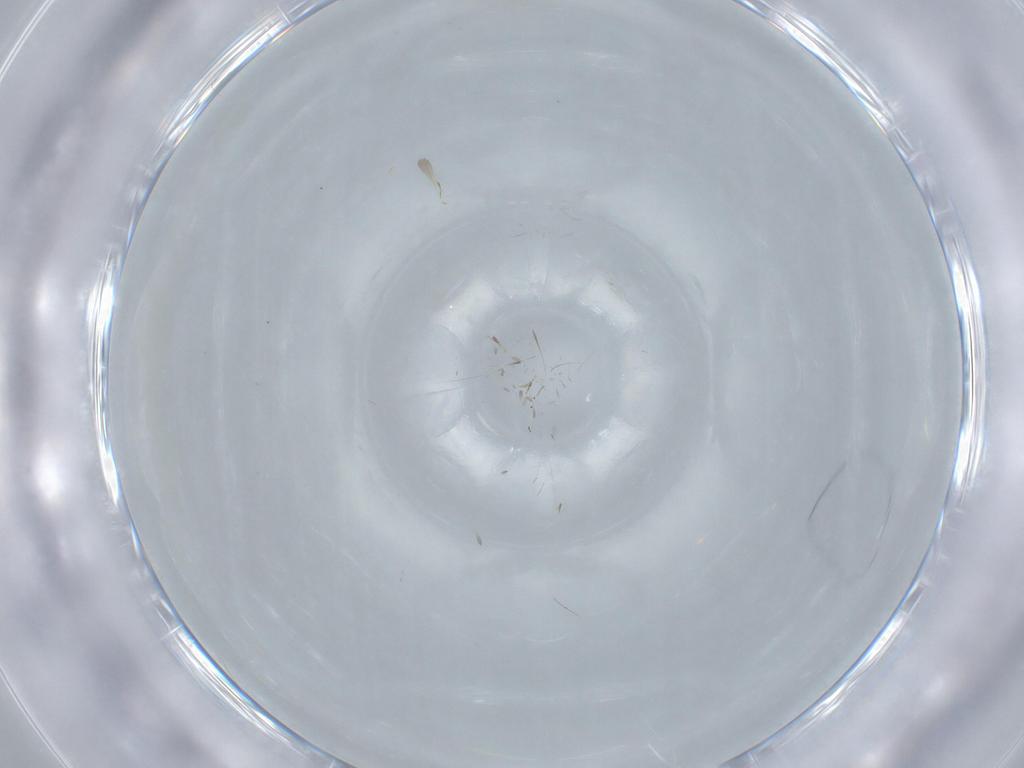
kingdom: Animalia
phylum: Arthropoda
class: Insecta
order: Thysanoptera
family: Phlaeothripidae
